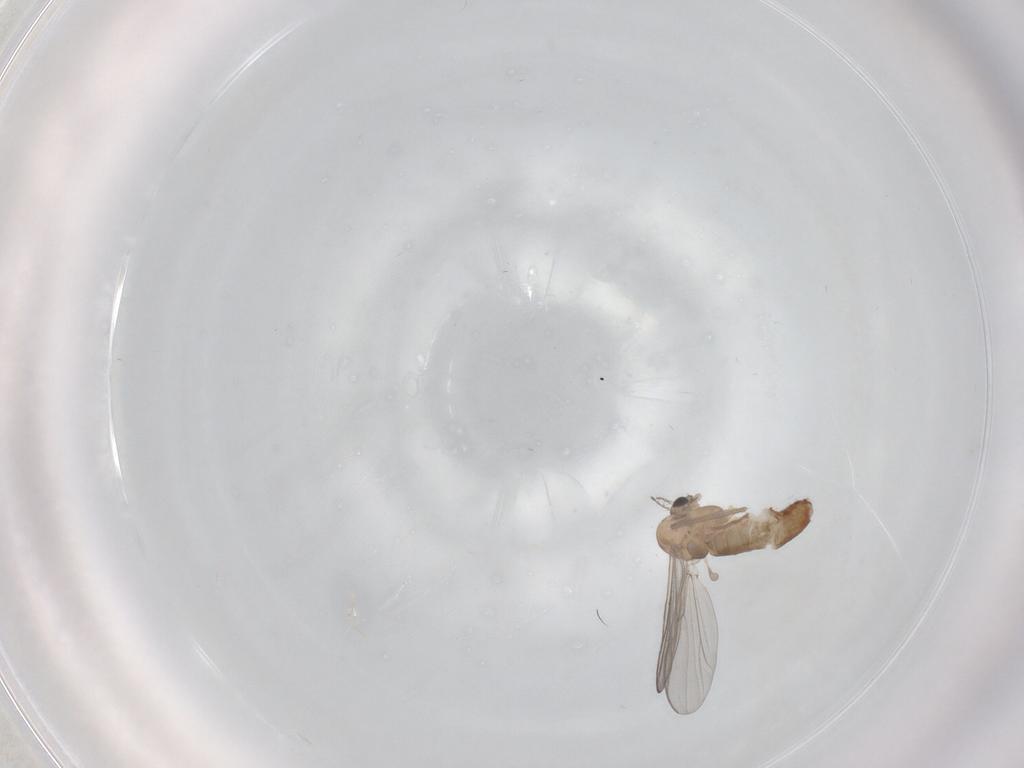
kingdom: Animalia
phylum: Arthropoda
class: Insecta
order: Diptera
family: Chironomidae
